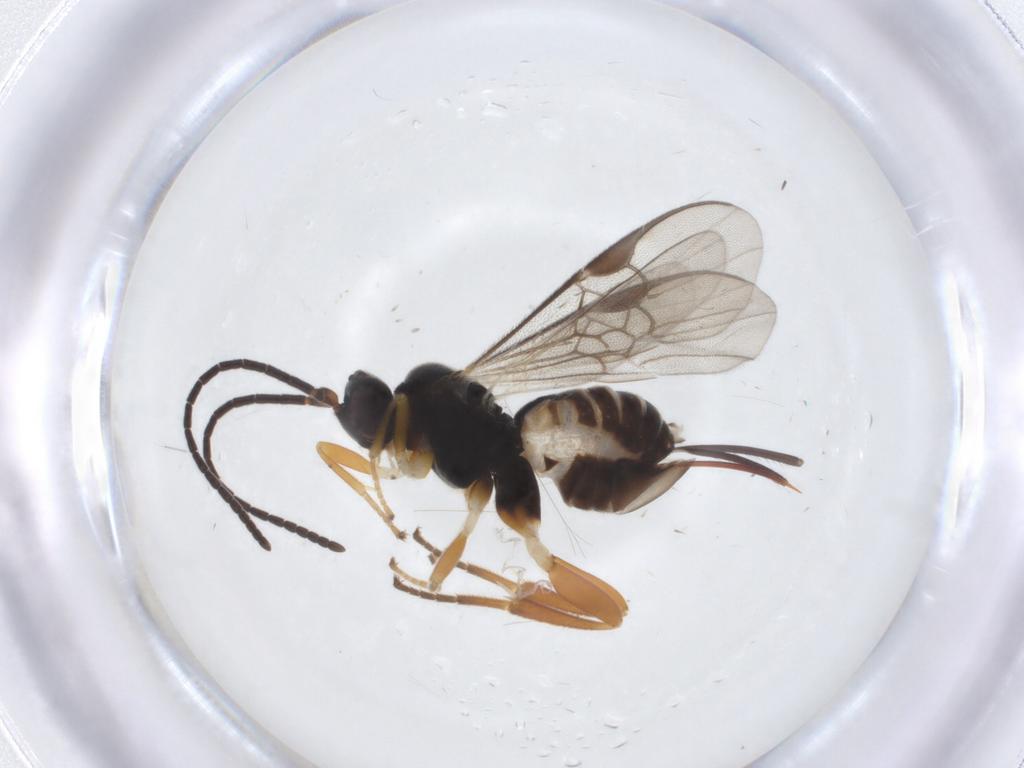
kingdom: Animalia
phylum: Arthropoda
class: Insecta
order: Hymenoptera
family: Braconidae
